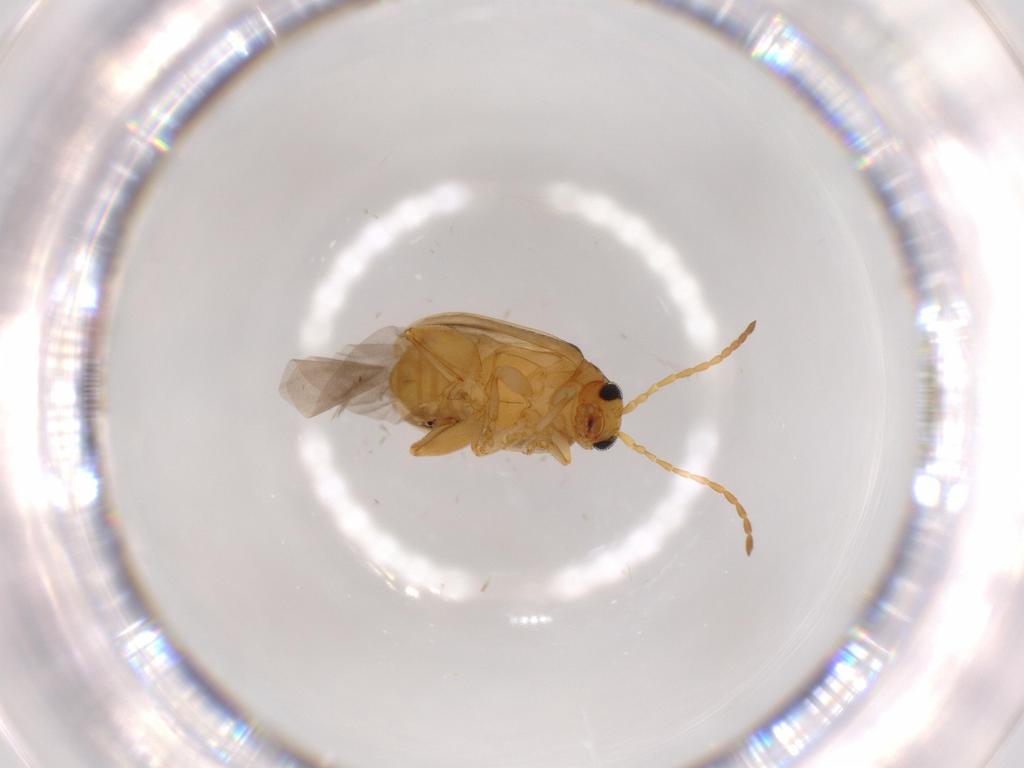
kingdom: Animalia
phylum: Arthropoda
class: Insecta
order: Coleoptera
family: Chrysomelidae
